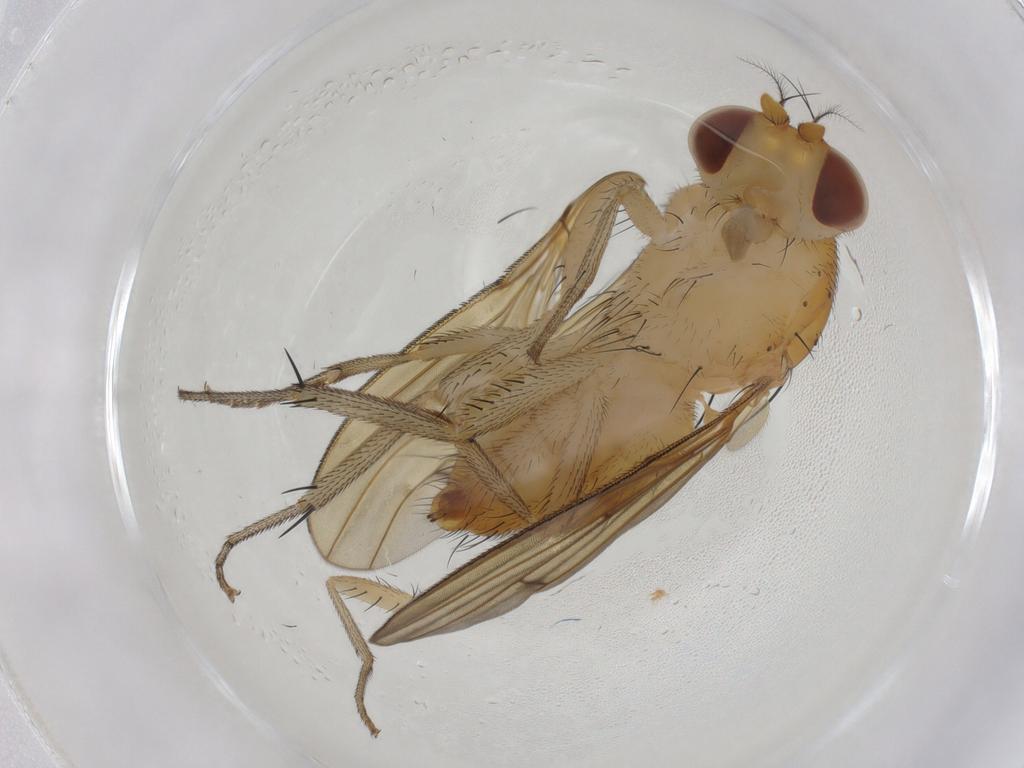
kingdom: Animalia
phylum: Arthropoda
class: Insecta
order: Diptera
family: Lauxaniidae
